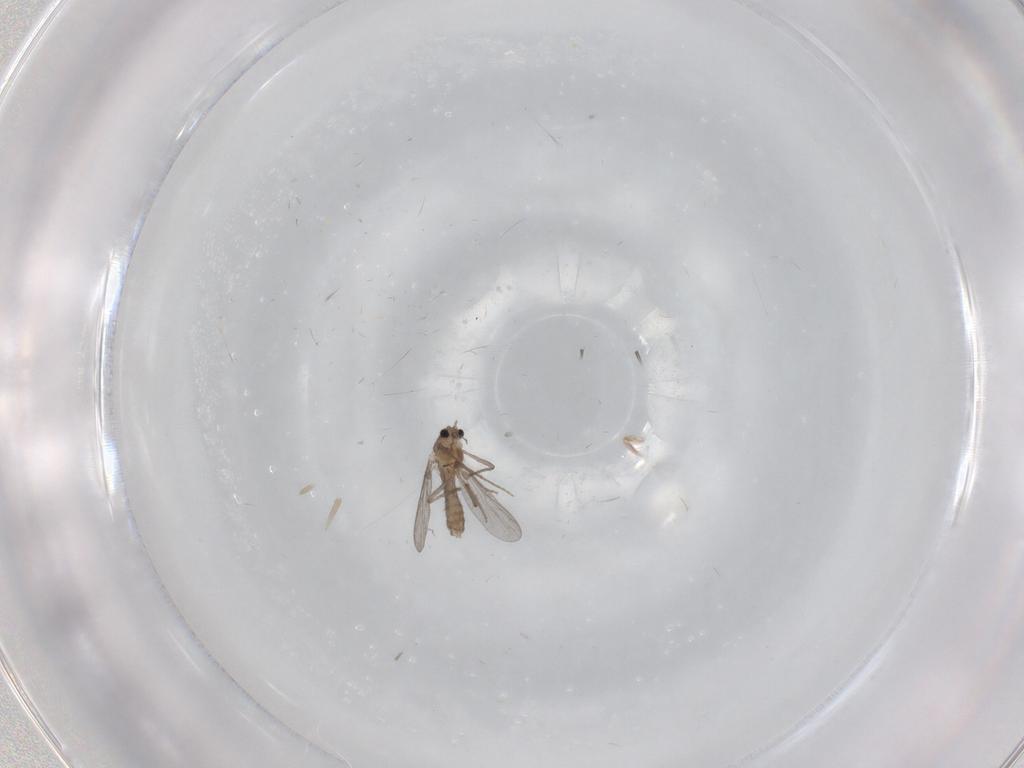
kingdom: Animalia
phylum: Arthropoda
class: Insecta
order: Diptera
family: Chironomidae
